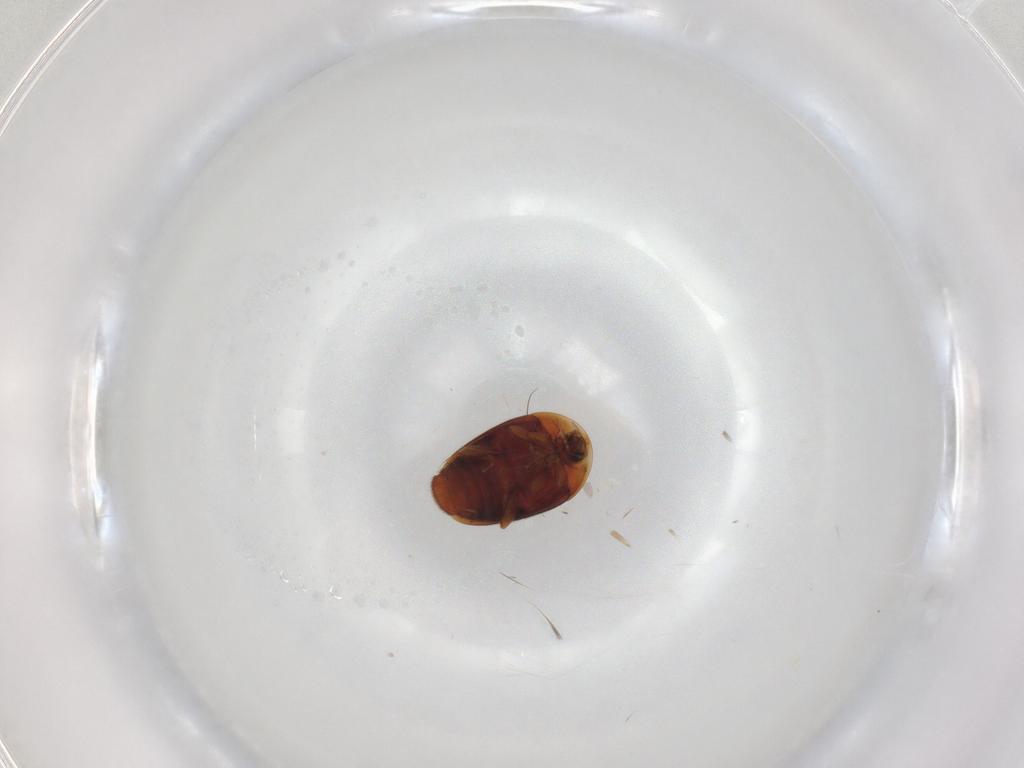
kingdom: Animalia
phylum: Arthropoda
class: Insecta
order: Coleoptera
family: Corylophidae
